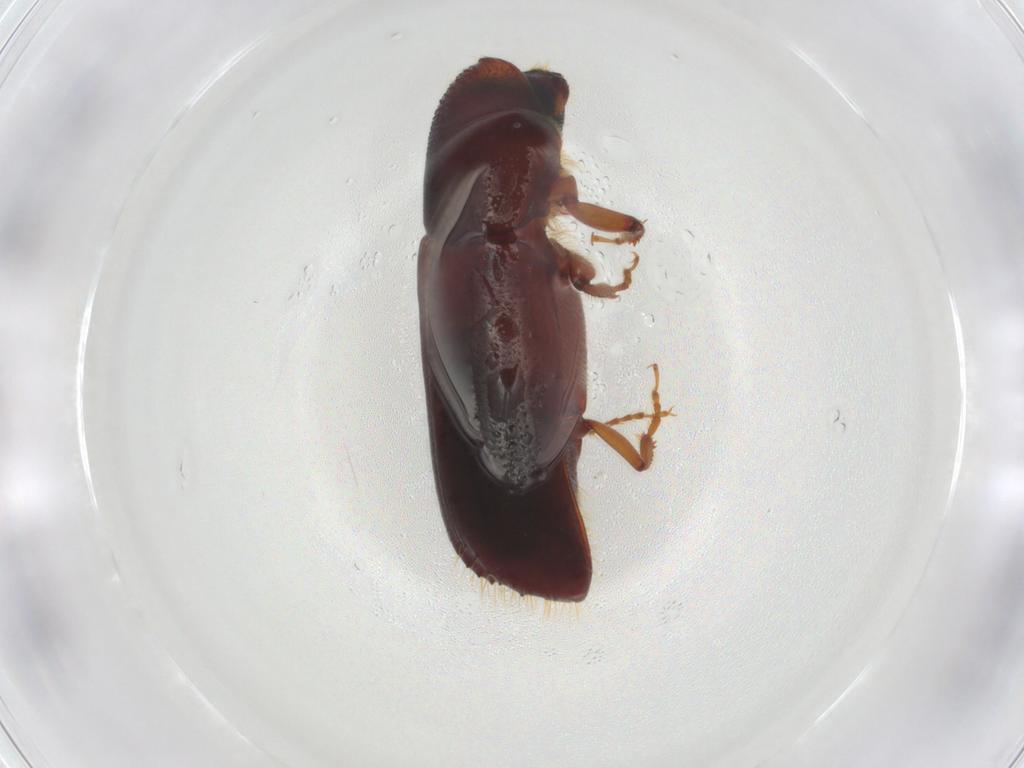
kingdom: Animalia
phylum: Arthropoda
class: Insecta
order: Coleoptera
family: Curculionidae
